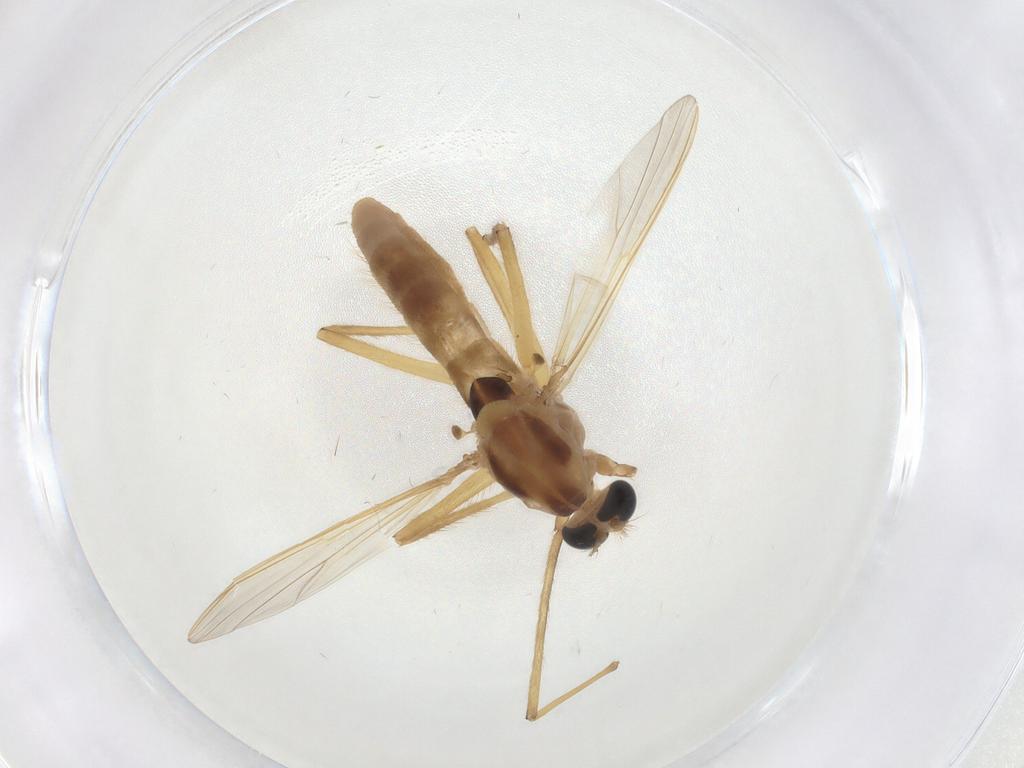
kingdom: Animalia
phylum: Arthropoda
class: Insecta
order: Diptera
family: Chironomidae
